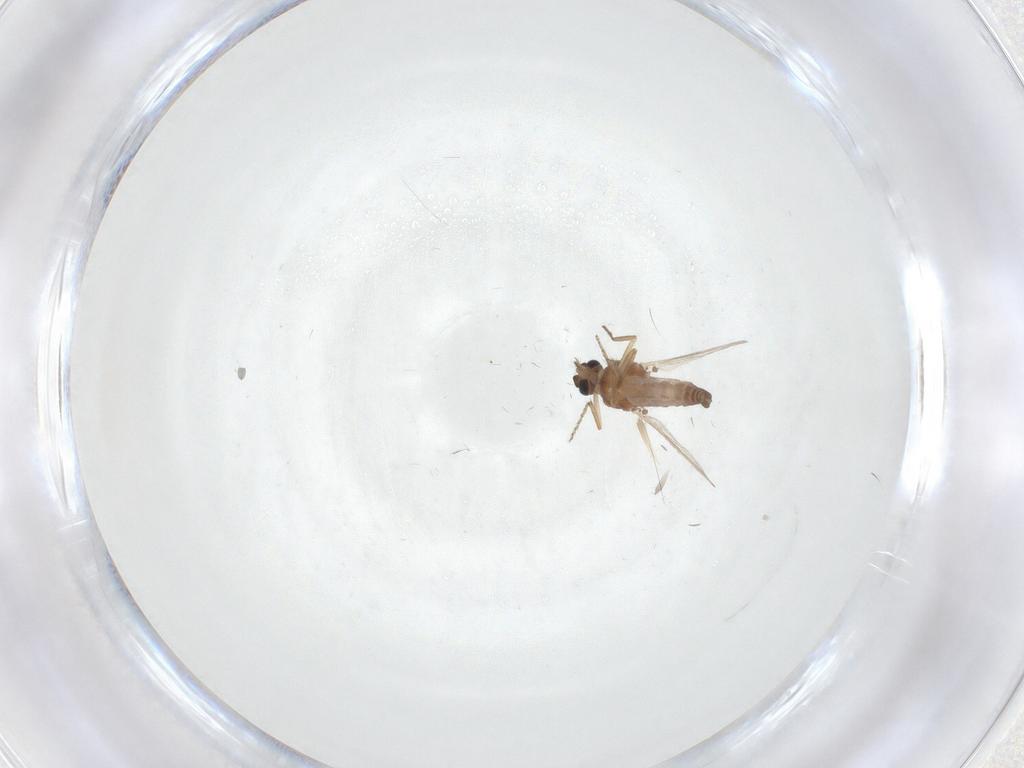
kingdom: Animalia
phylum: Arthropoda
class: Insecta
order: Diptera
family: Ceratopogonidae
